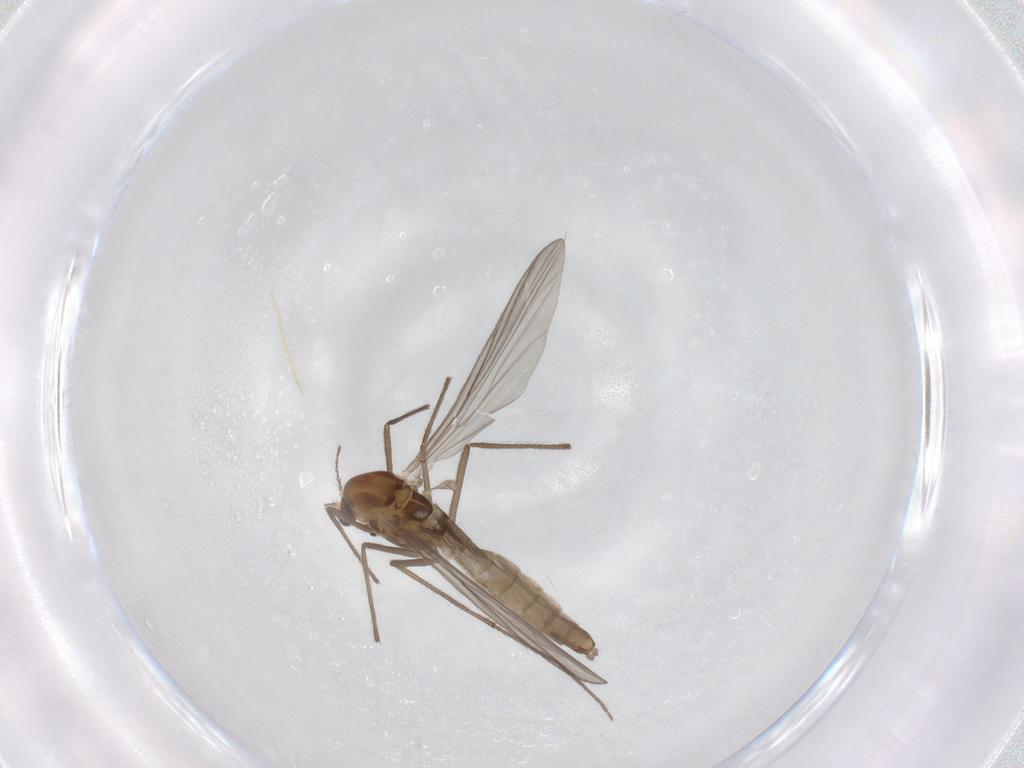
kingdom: Animalia
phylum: Arthropoda
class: Insecta
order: Diptera
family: Chironomidae
